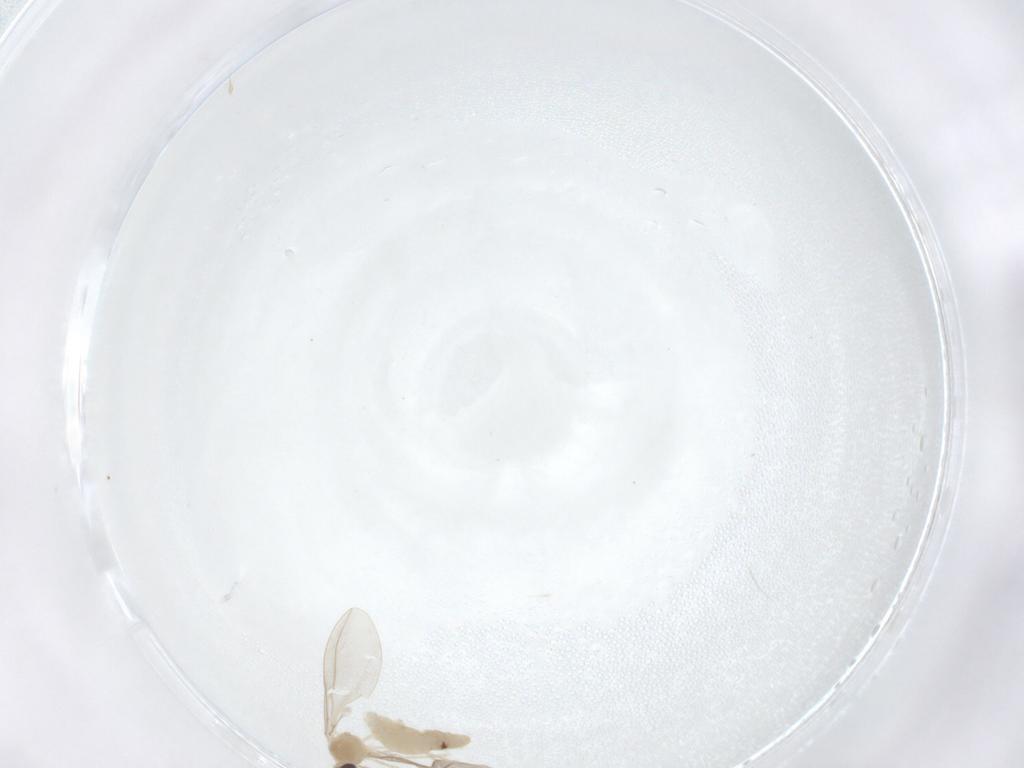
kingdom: Animalia
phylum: Arthropoda
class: Insecta
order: Diptera
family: Cecidomyiidae
